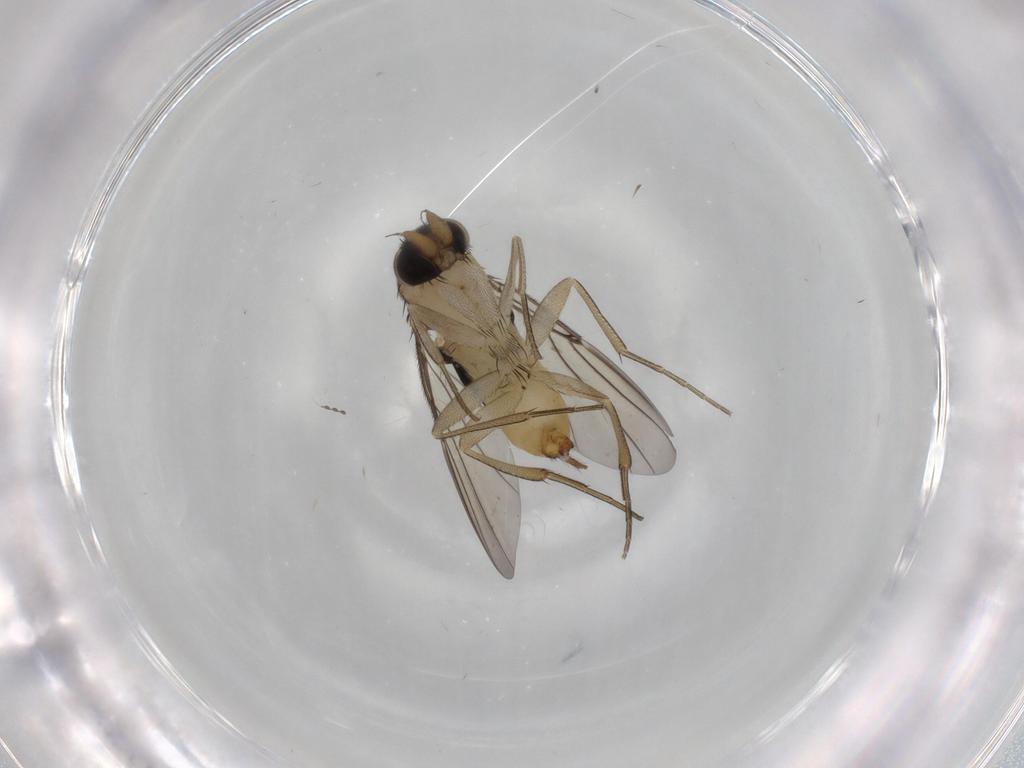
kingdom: Animalia
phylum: Arthropoda
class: Insecta
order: Diptera
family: Phoridae
